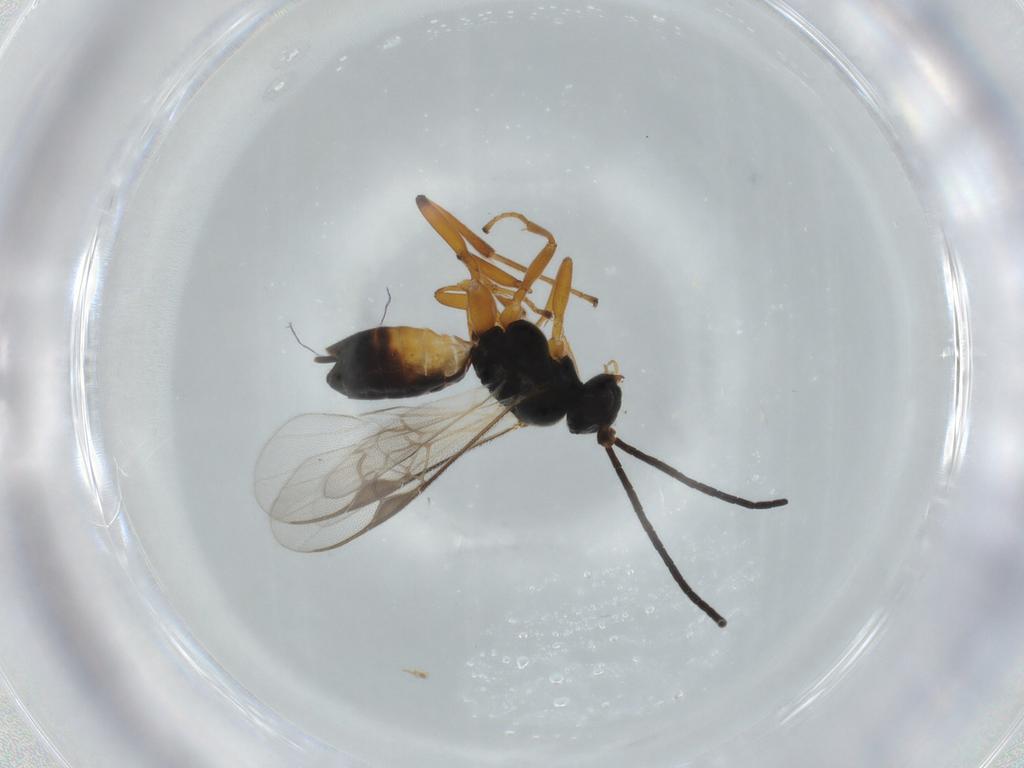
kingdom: Animalia
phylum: Arthropoda
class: Insecta
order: Hymenoptera
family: Braconidae
